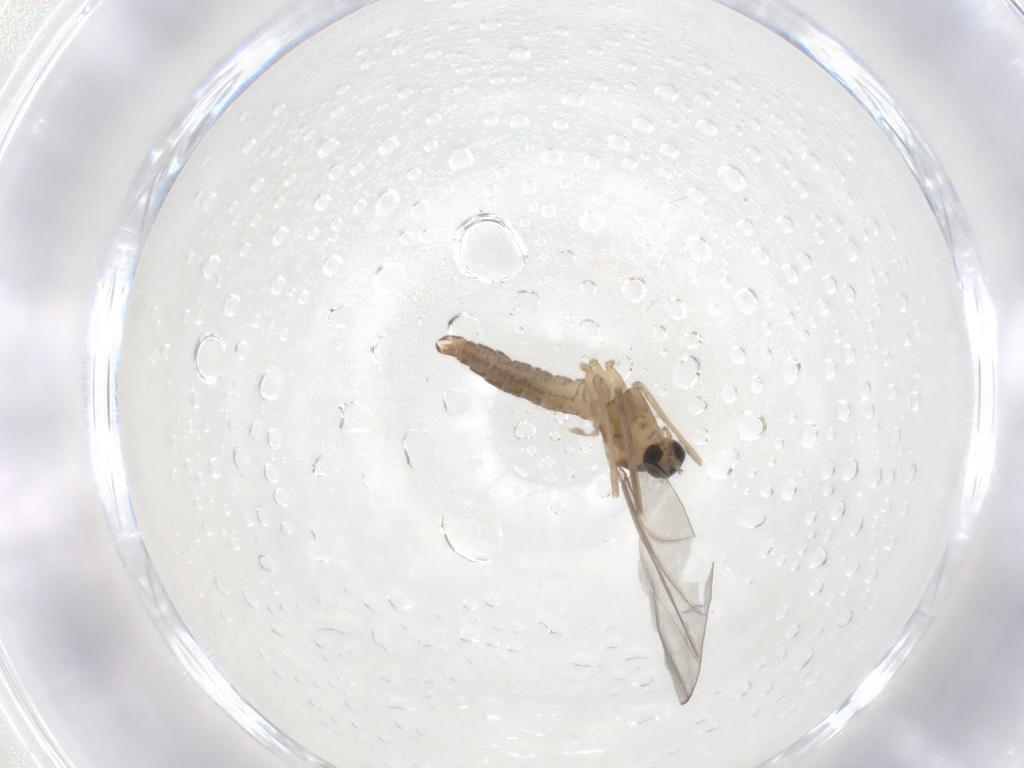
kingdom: Animalia
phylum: Arthropoda
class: Insecta
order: Diptera
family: Cecidomyiidae
